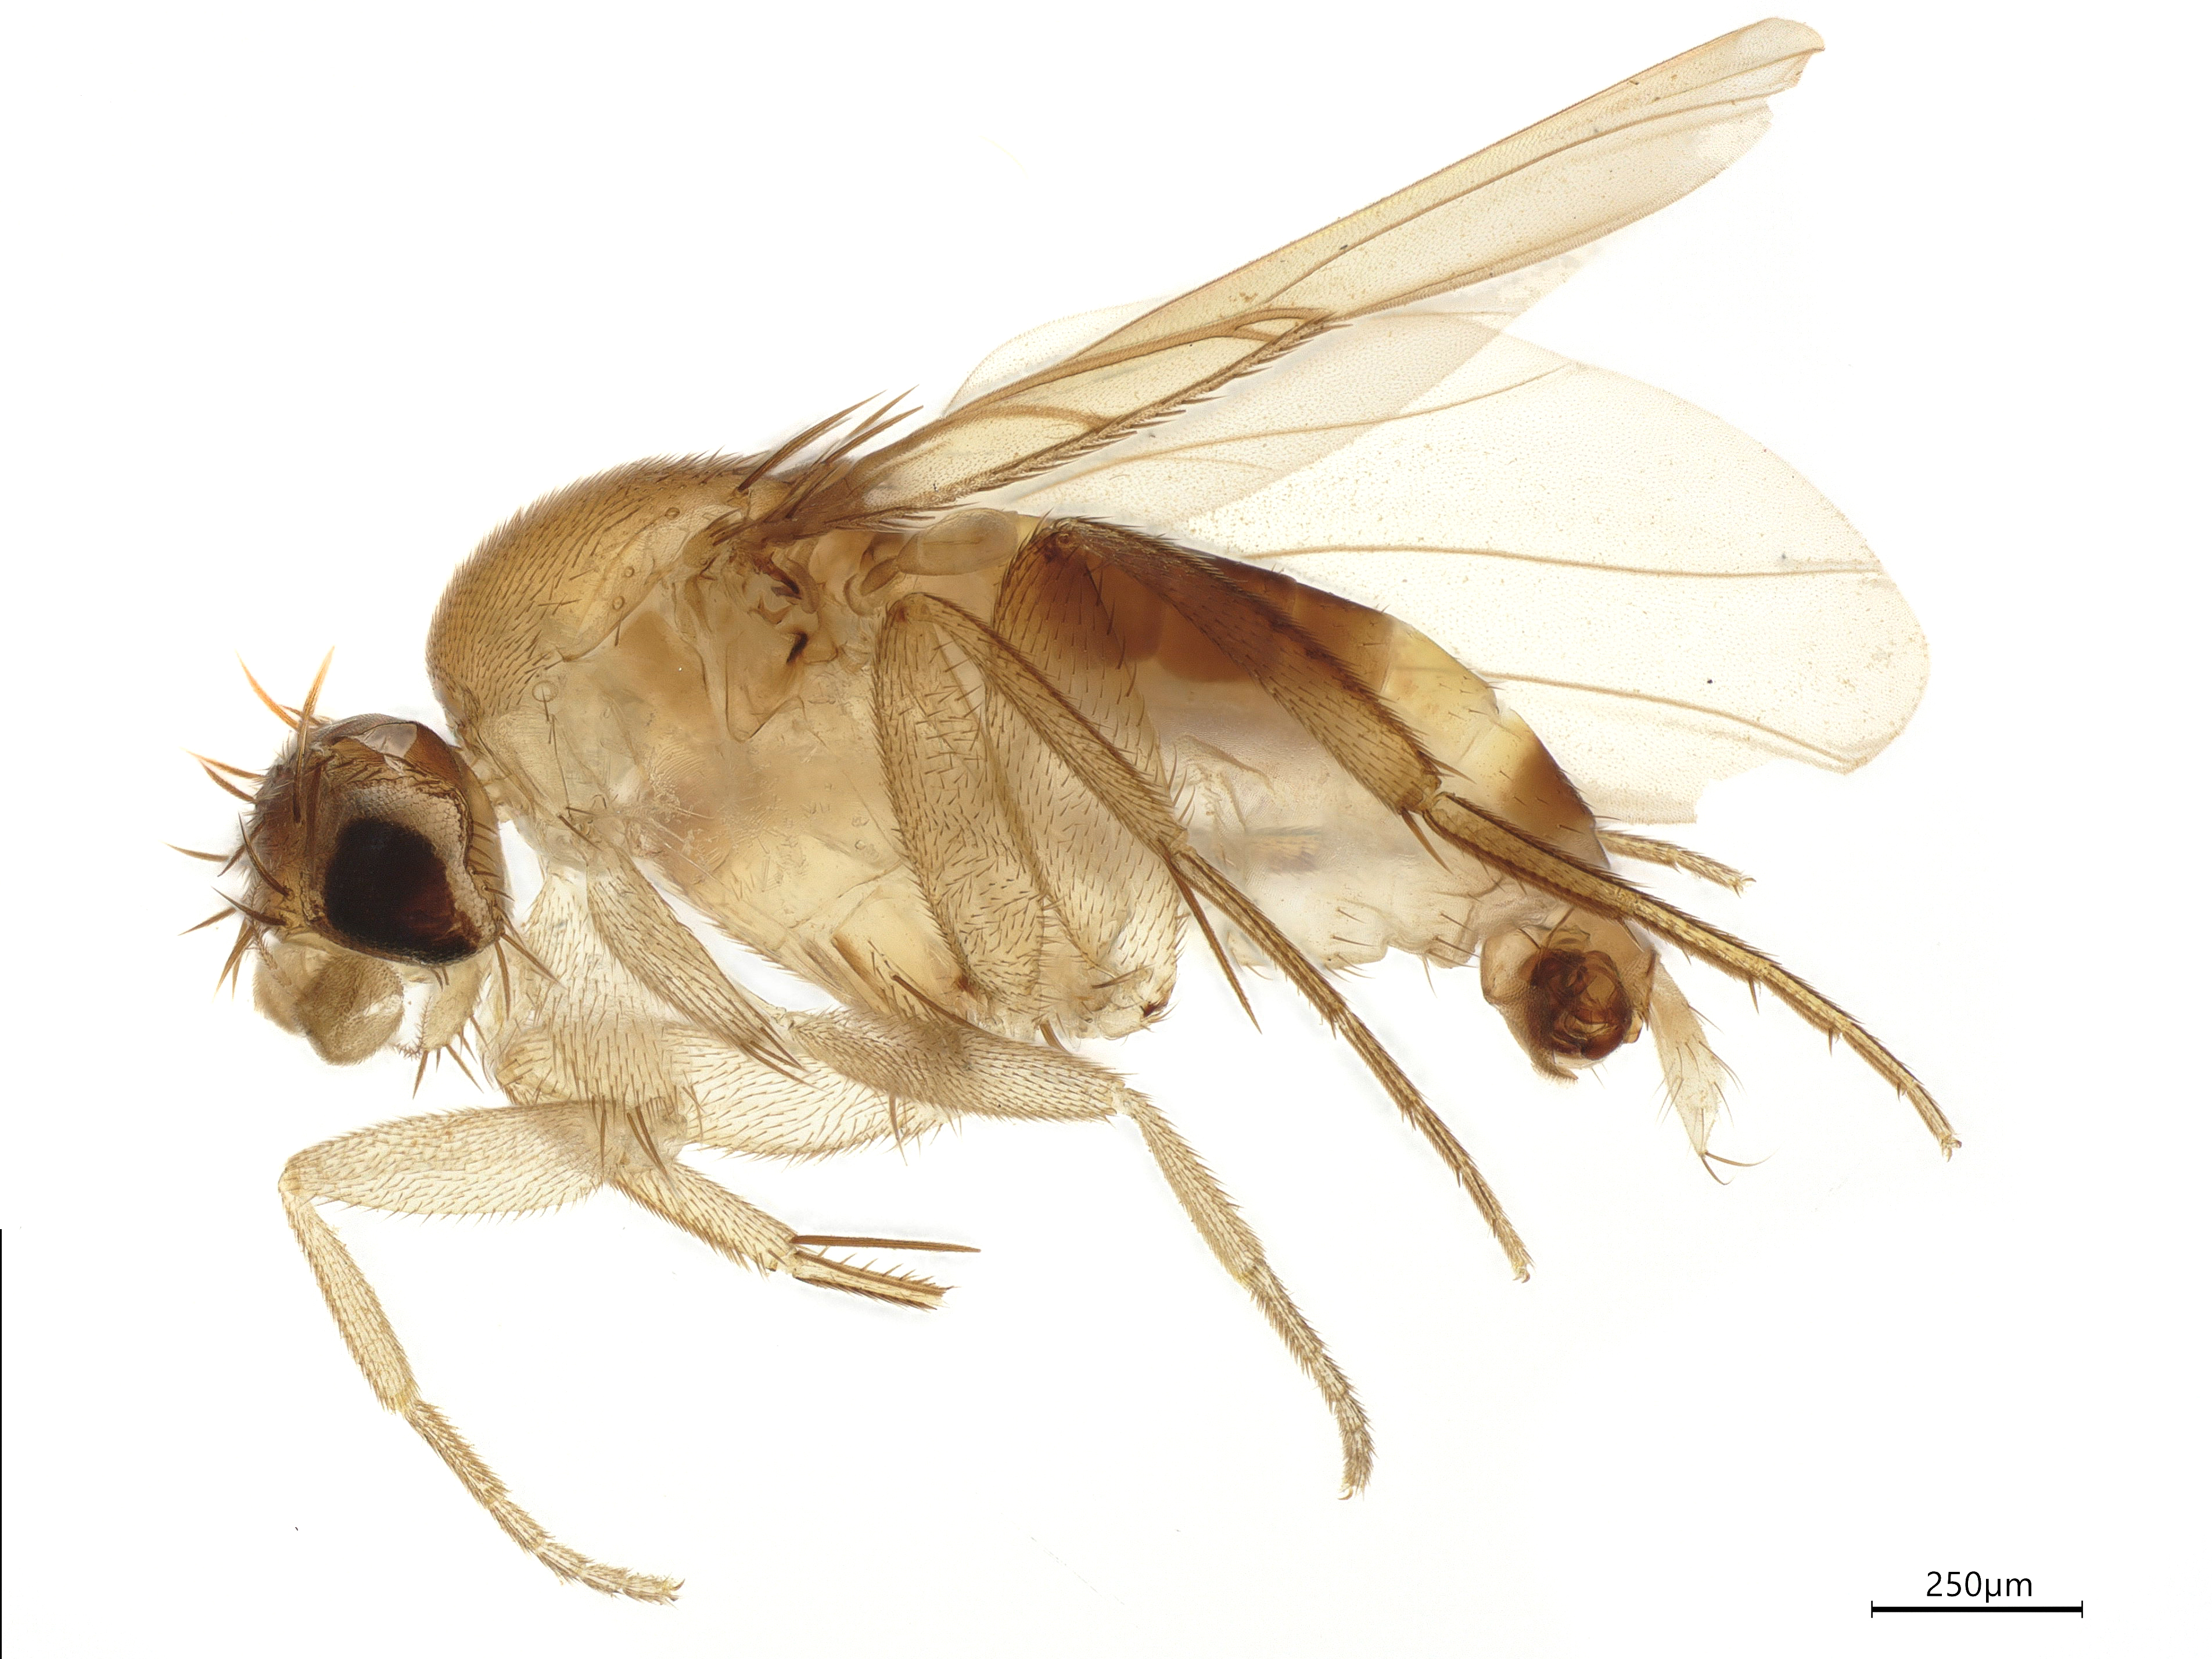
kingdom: Animalia
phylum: Arthropoda
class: Insecta
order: Diptera
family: Phoridae
